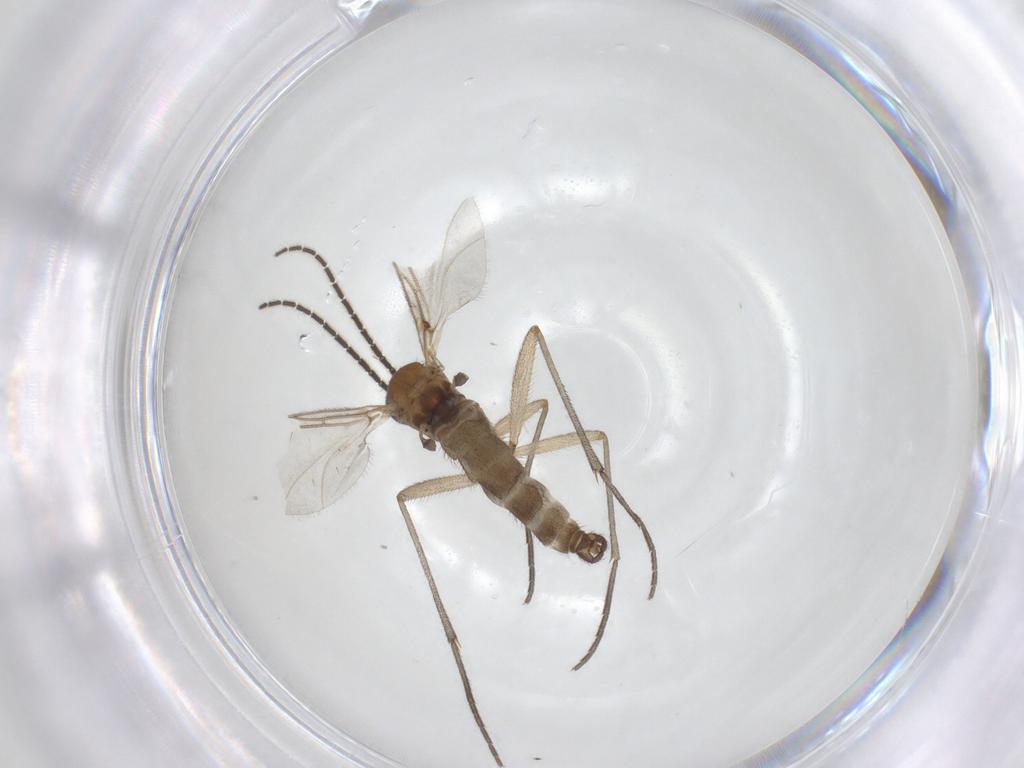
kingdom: Animalia
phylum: Arthropoda
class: Insecta
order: Diptera
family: Sciaridae
